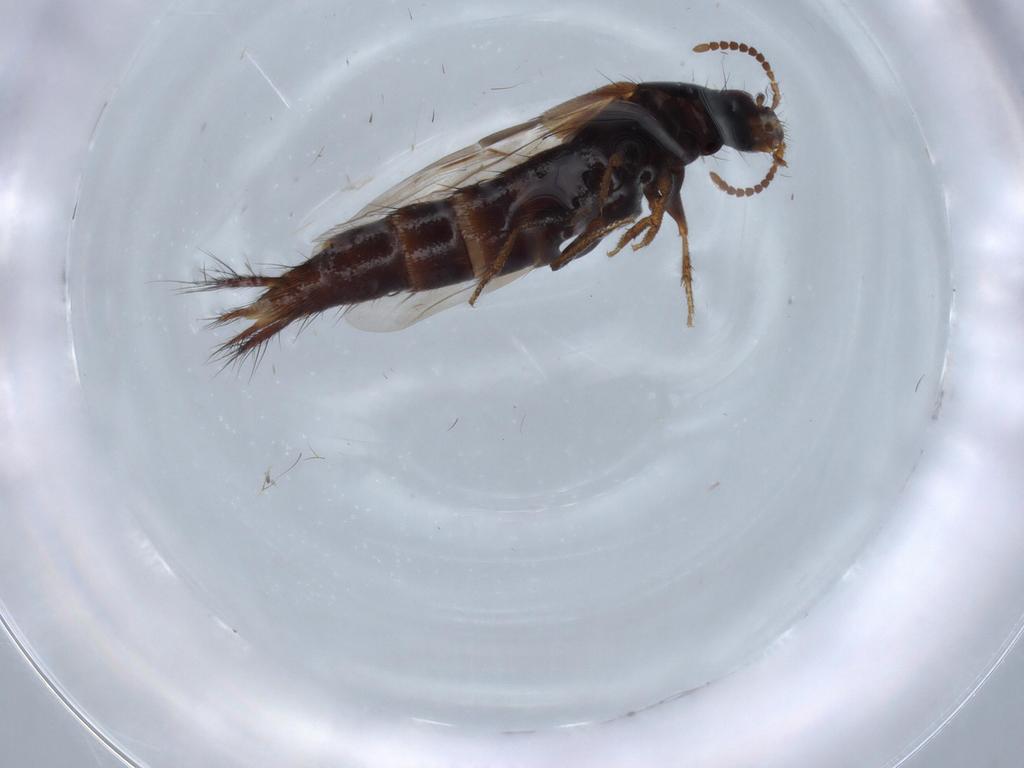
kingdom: Animalia
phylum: Arthropoda
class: Insecta
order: Coleoptera
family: Staphylinidae
